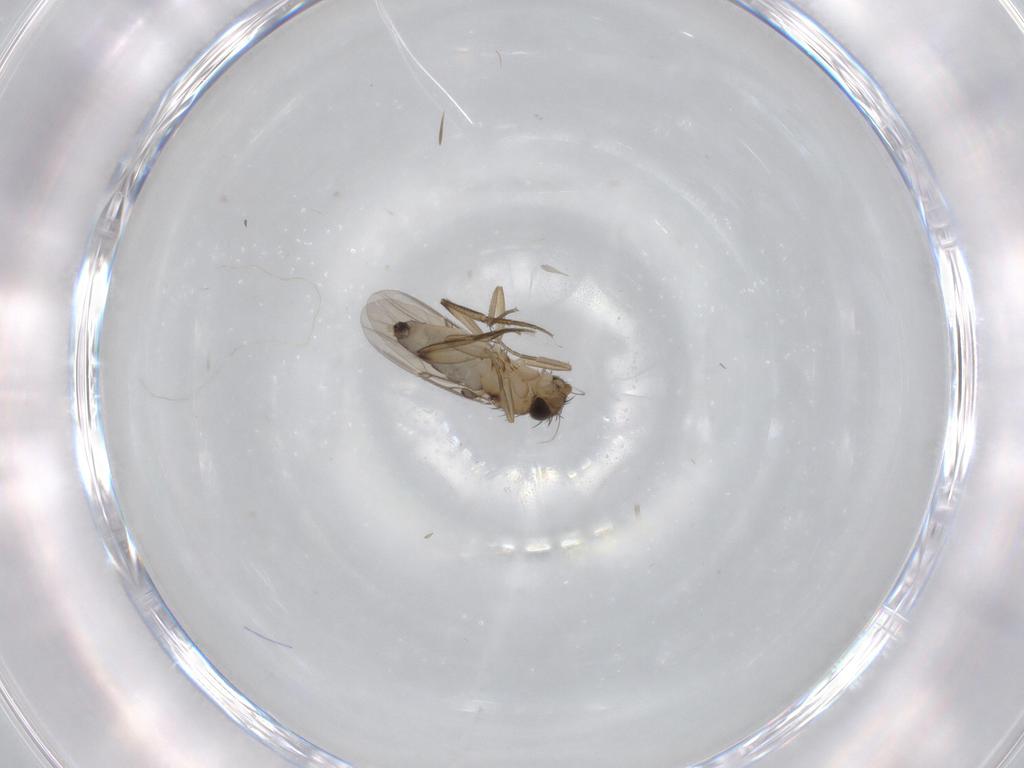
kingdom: Animalia
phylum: Arthropoda
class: Insecta
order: Diptera
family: Phoridae
